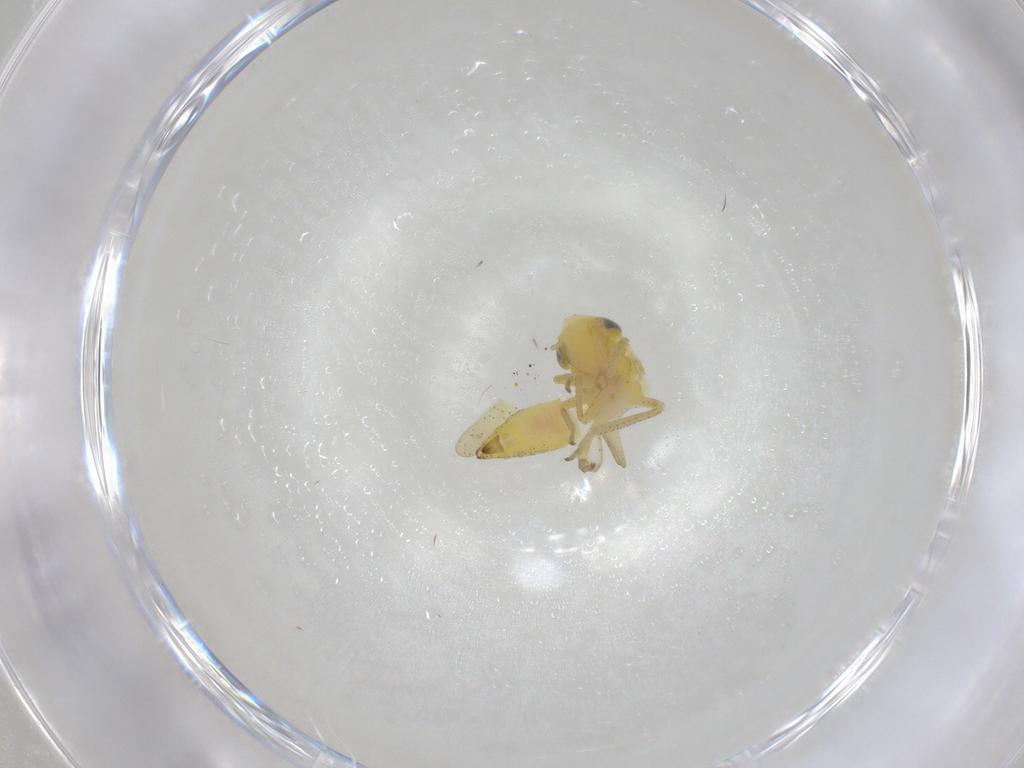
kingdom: Animalia
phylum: Arthropoda
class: Insecta
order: Hemiptera
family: Cicadellidae
